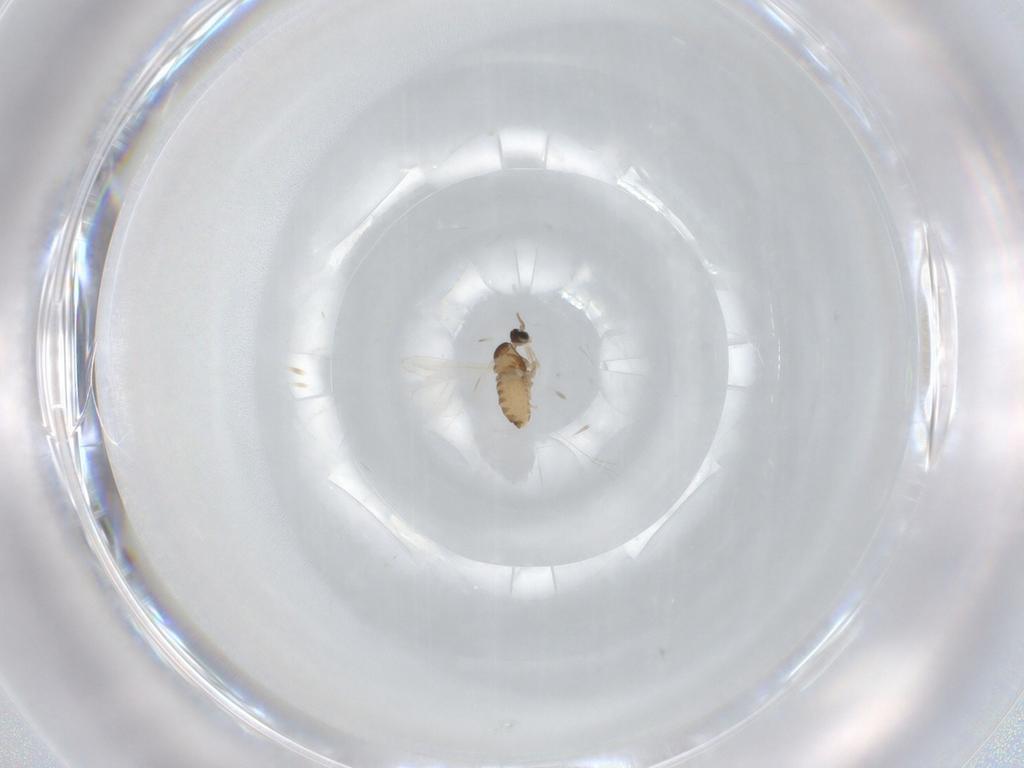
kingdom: Animalia
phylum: Arthropoda
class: Insecta
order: Diptera
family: Cecidomyiidae
